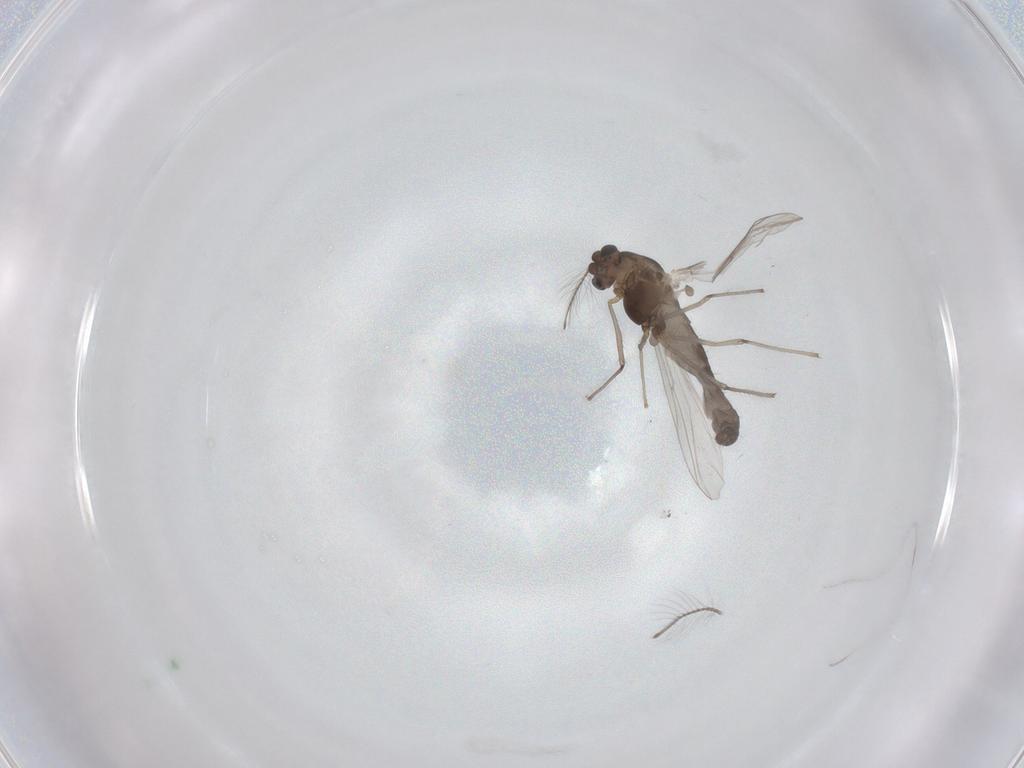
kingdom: Animalia
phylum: Arthropoda
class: Insecta
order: Diptera
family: Chironomidae
